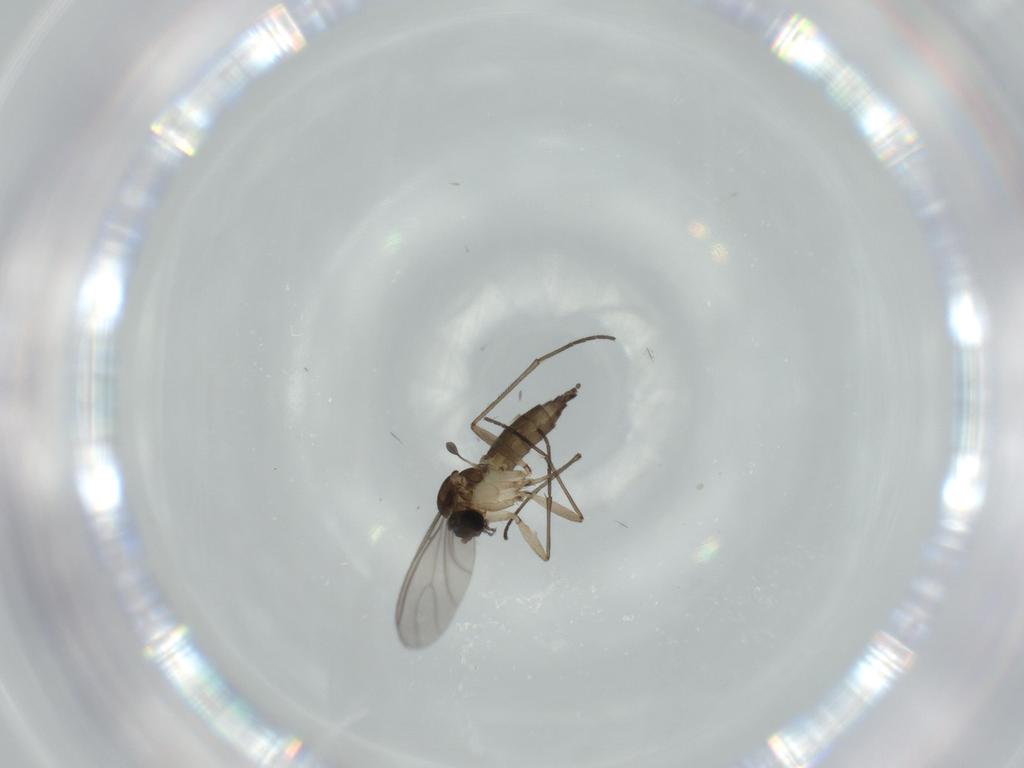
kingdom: Animalia
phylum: Arthropoda
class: Insecta
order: Diptera
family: Sciaridae
